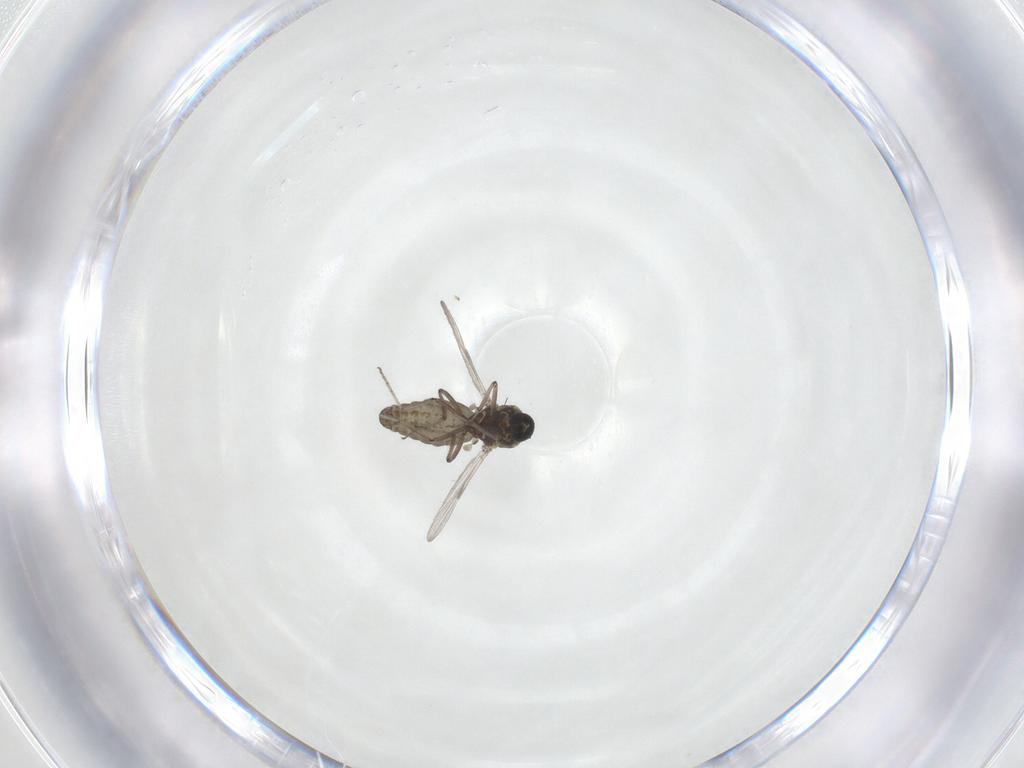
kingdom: Animalia
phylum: Arthropoda
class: Insecta
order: Diptera
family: Ceratopogonidae
